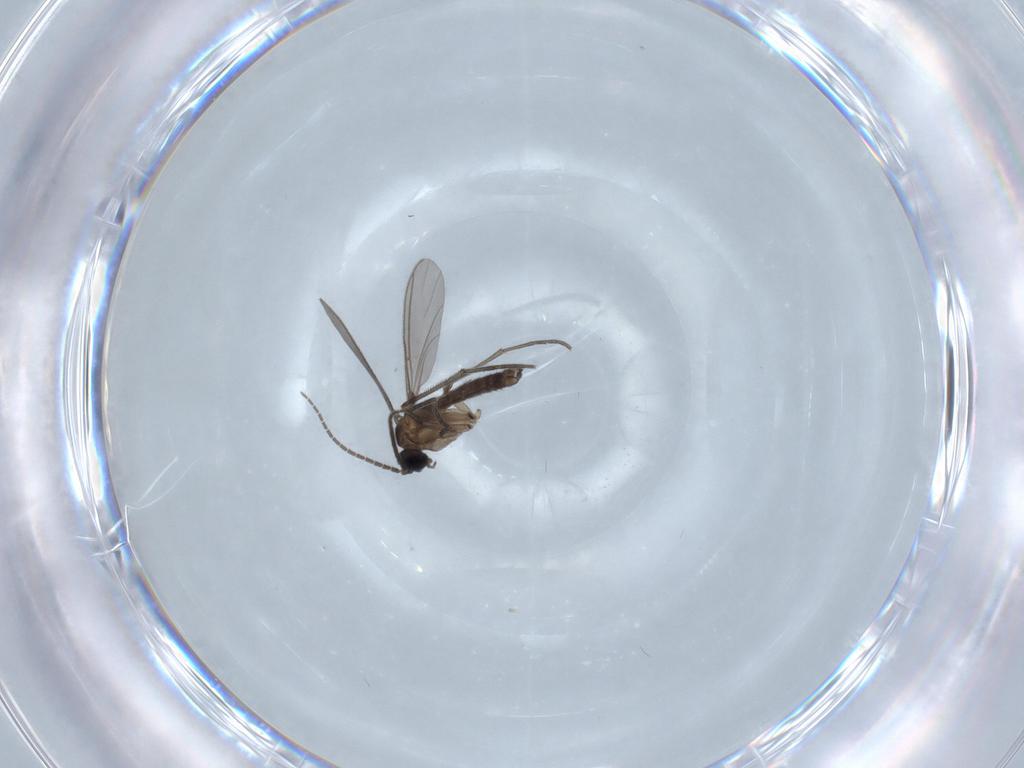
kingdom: Animalia
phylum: Arthropoda
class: Insecta
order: Diptera
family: Sciaridae
